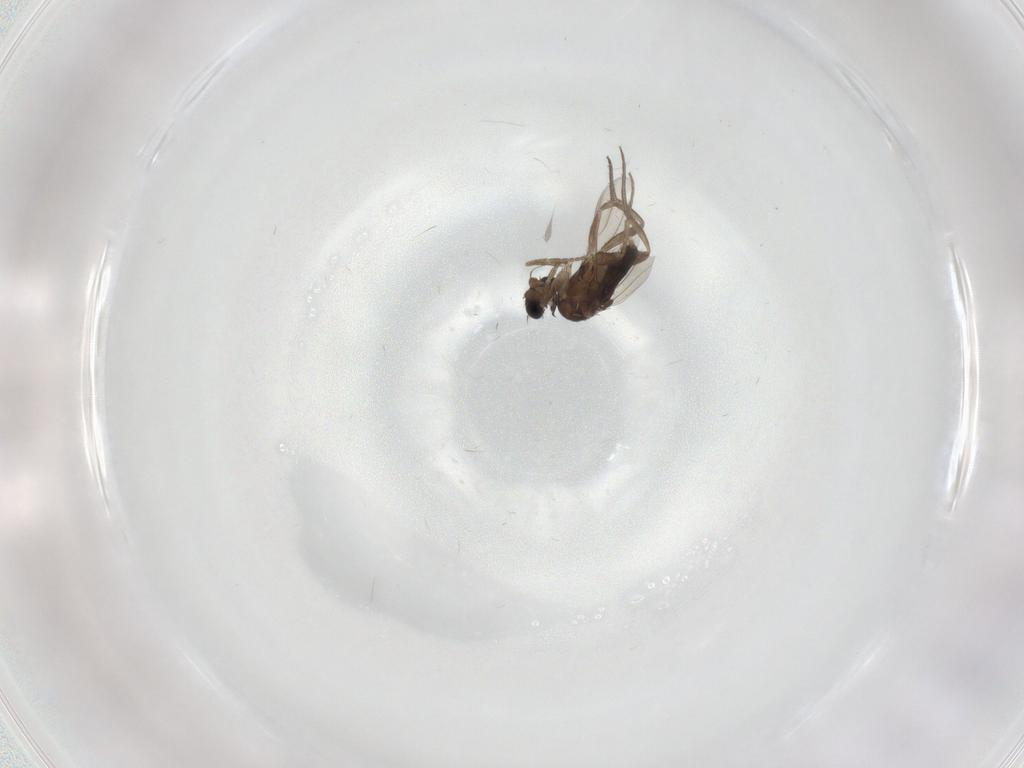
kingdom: Animalia
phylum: Arthropoda
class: Insecta
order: Diptera
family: Phoridae
